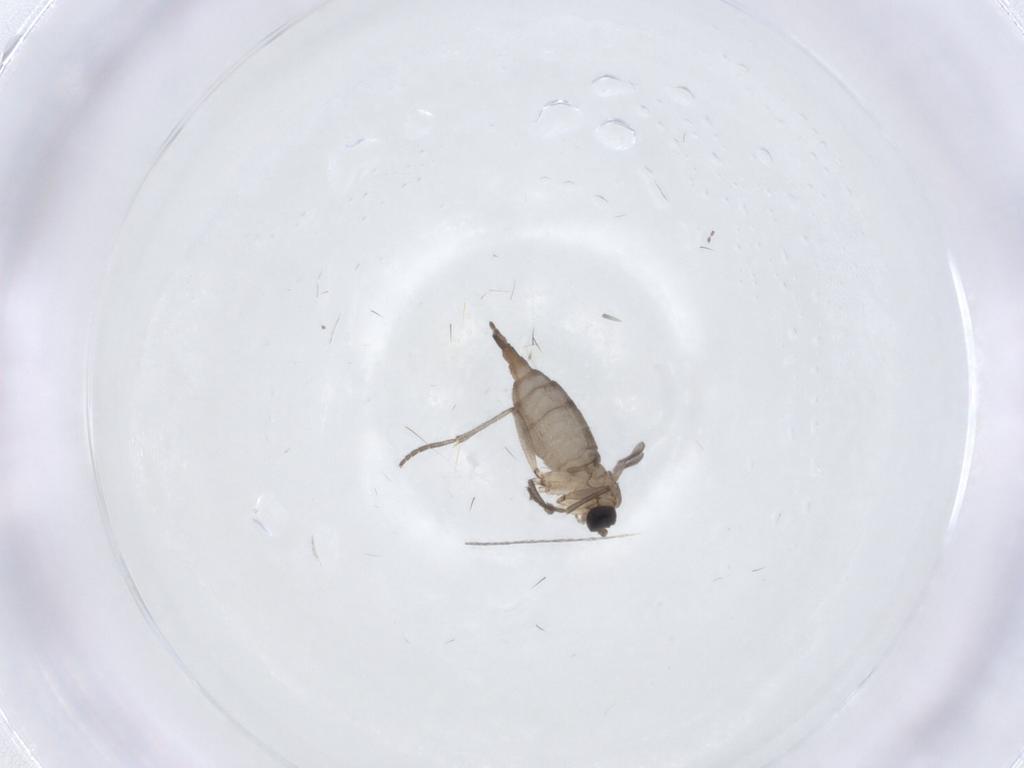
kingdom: Animalia
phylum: Arthropoda
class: Insecta
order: Diptera
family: Sciaridae
